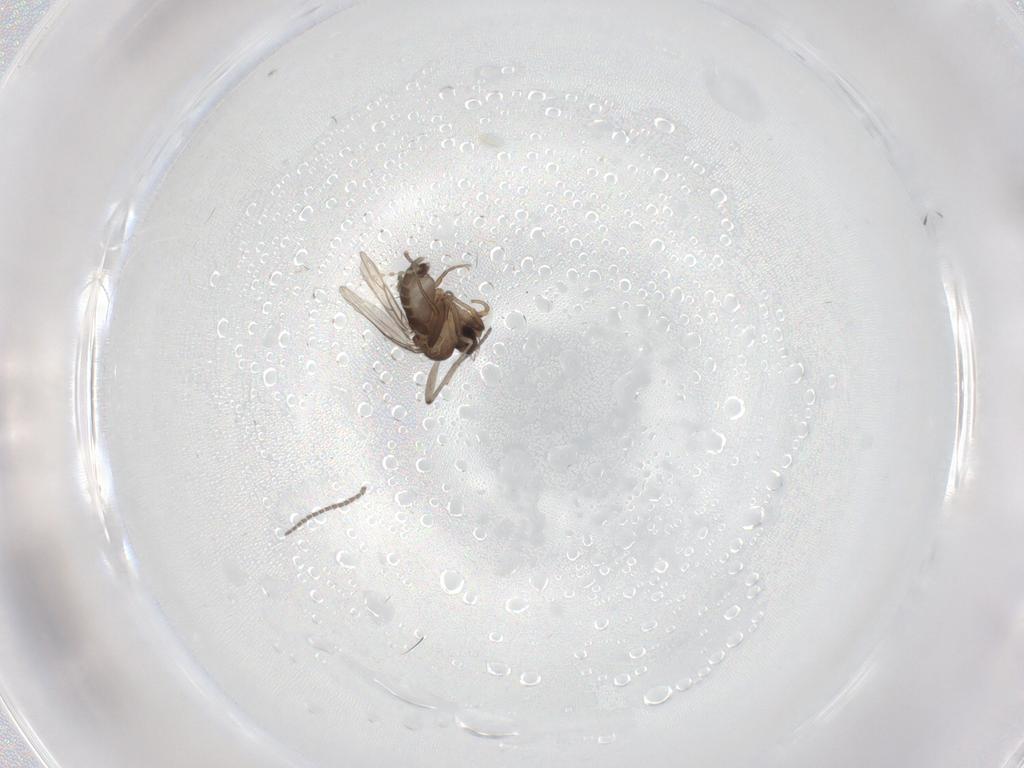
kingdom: Animalia
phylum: Arthropoda
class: Insecta
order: Diptera
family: Sciaridae
